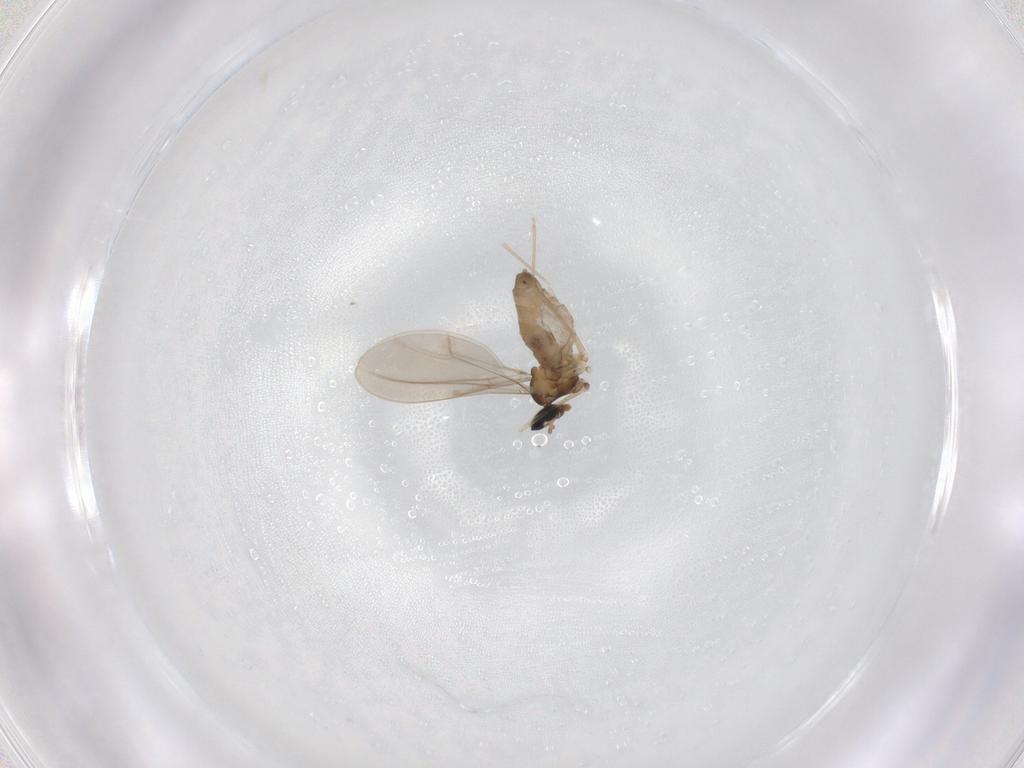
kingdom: Animalia
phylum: Arthropoda
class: Insecta
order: Diptera
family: Cecidomyiidae
